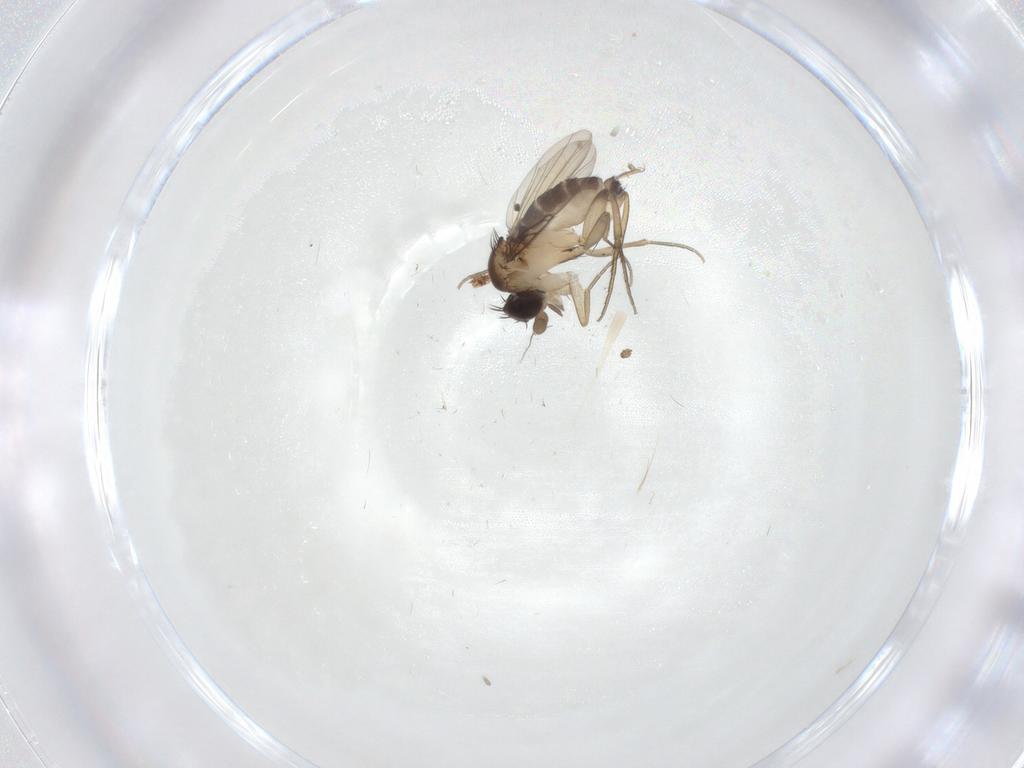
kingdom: Animalia
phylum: Arthropoda
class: Insecta
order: Diptera
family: Phoridae
